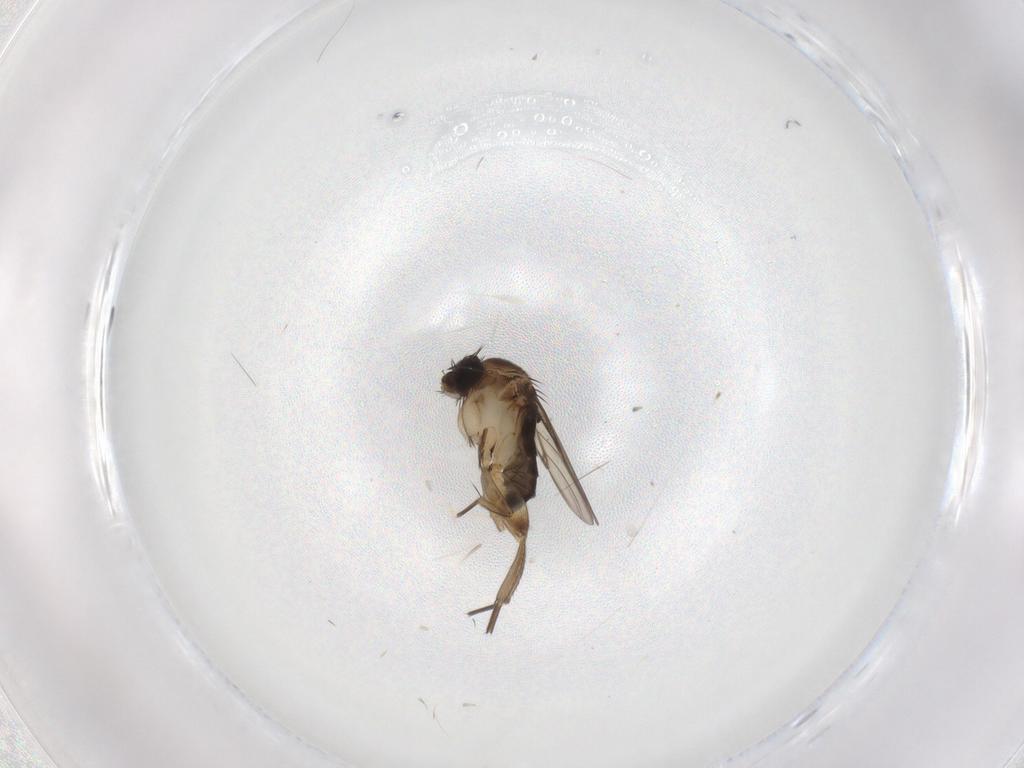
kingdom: Animalia
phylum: Arthropoda
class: Insecta
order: Diptera
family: Phoridae
